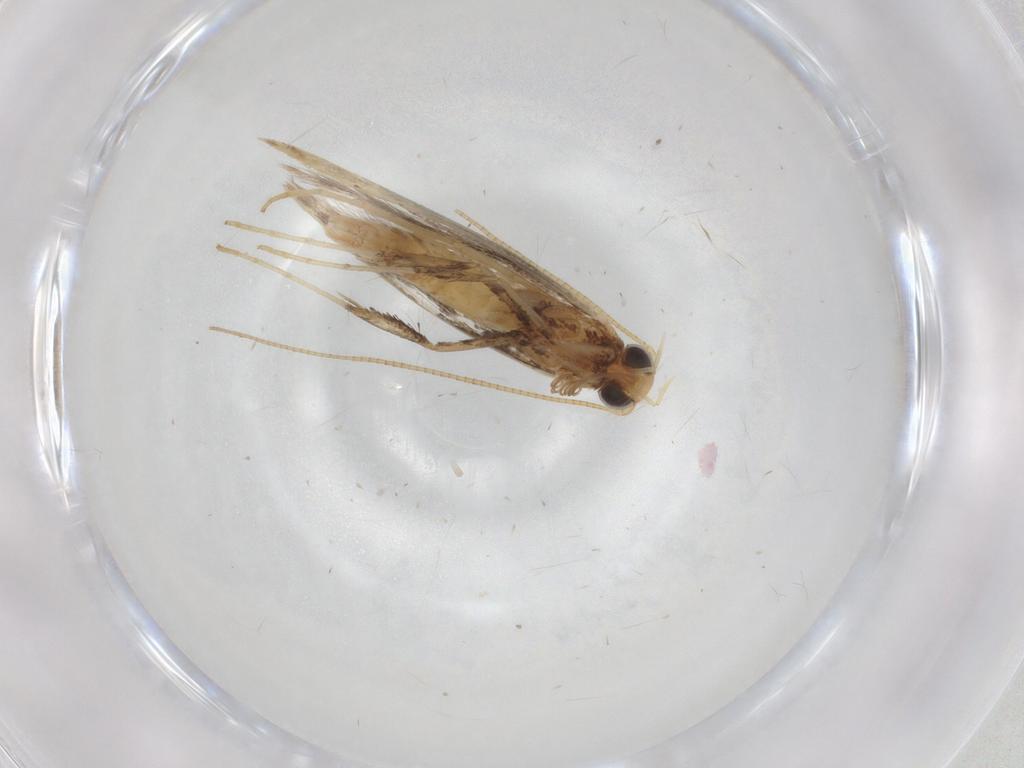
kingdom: Animalia
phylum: Arthropoda
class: Insecta
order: Lepidoptera
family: Gracillariidae
